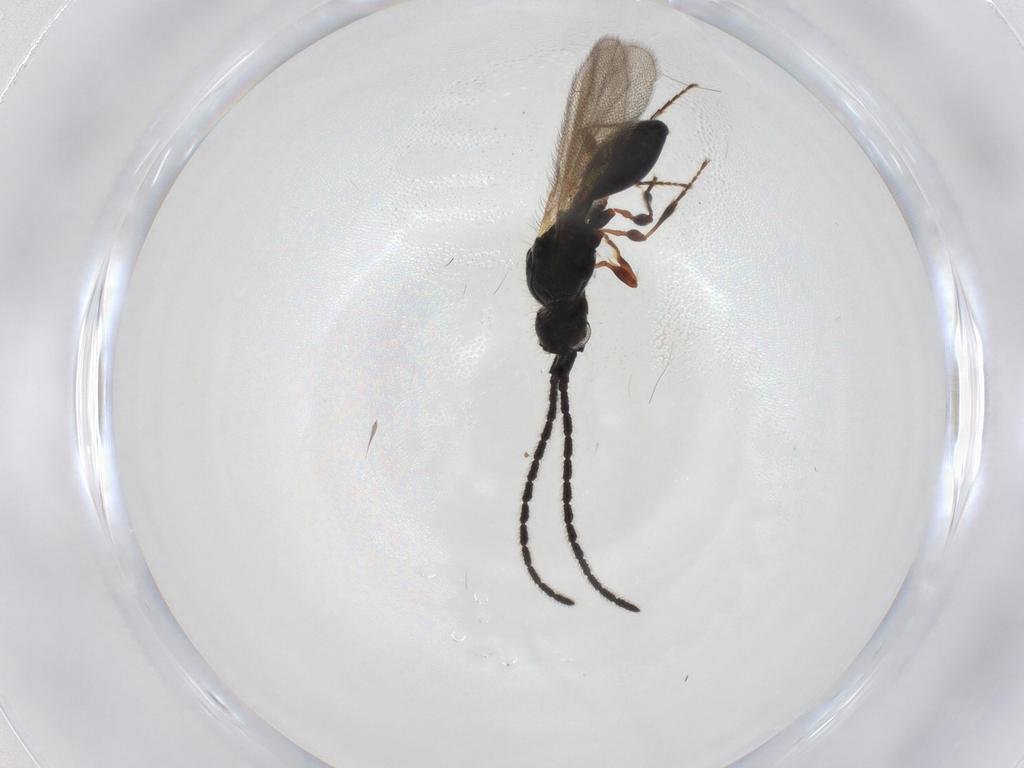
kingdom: Animalia
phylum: Arthropoda
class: Insecta
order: Hymenoptera
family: Diapriidae
